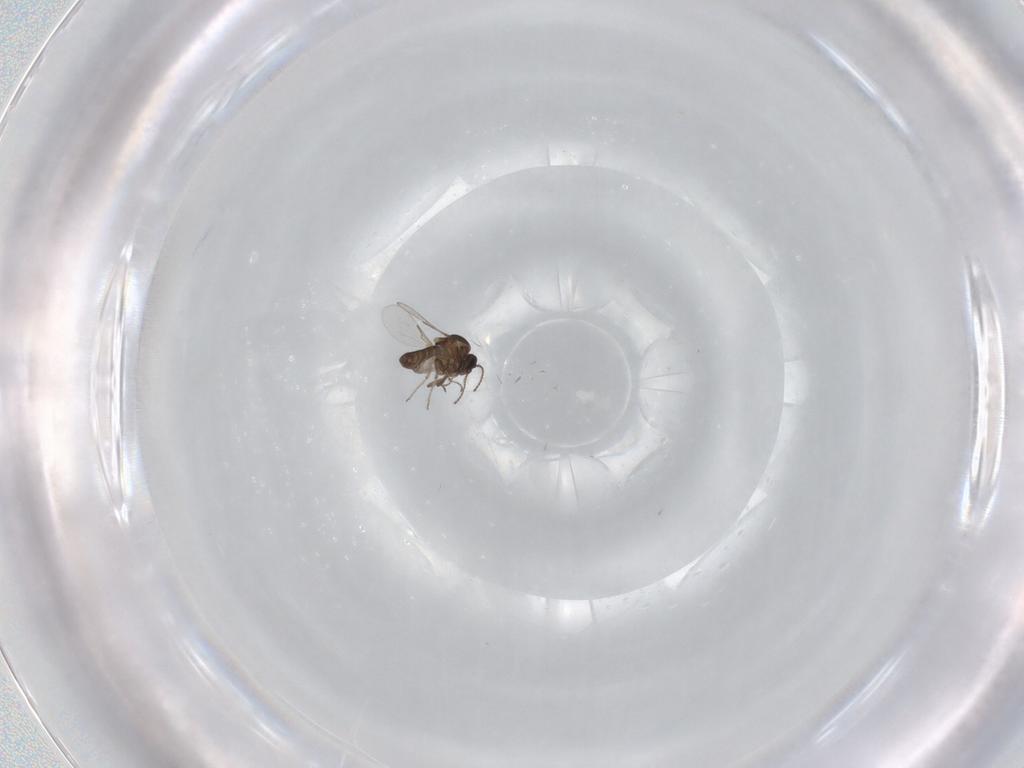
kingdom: Animalia
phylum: Arthropoda
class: Insecta
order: Diptera
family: Ceratopogonidae
